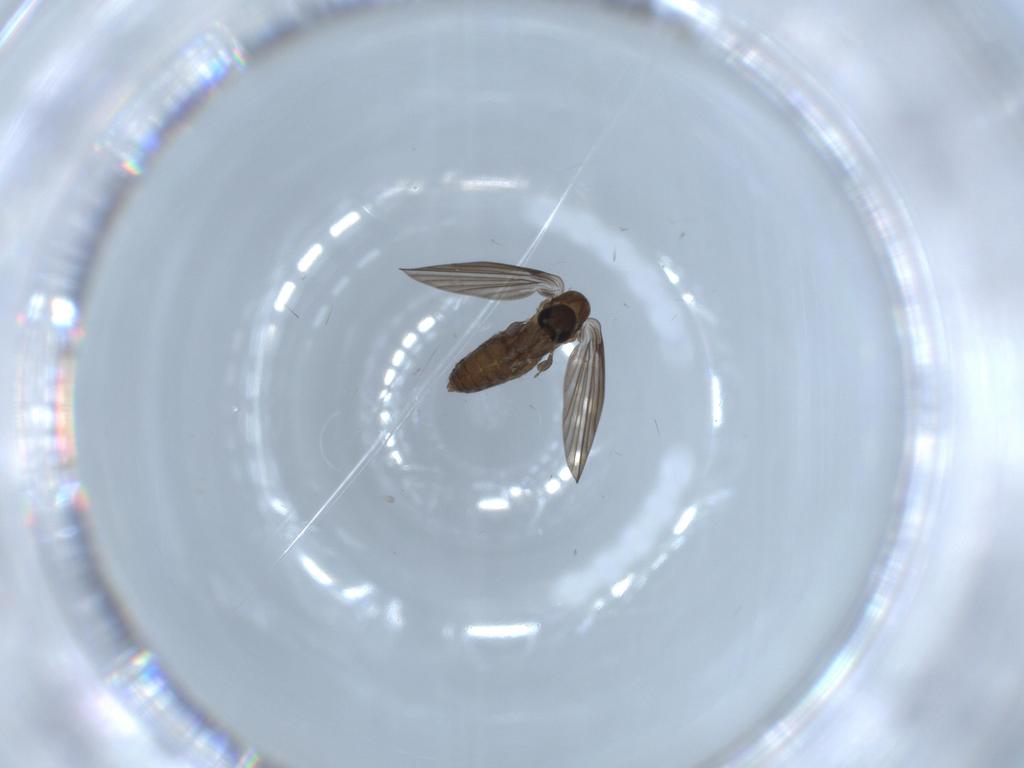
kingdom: Animalia
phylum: Arthropoda
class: Insecta
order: Diptera
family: Psychodidae
